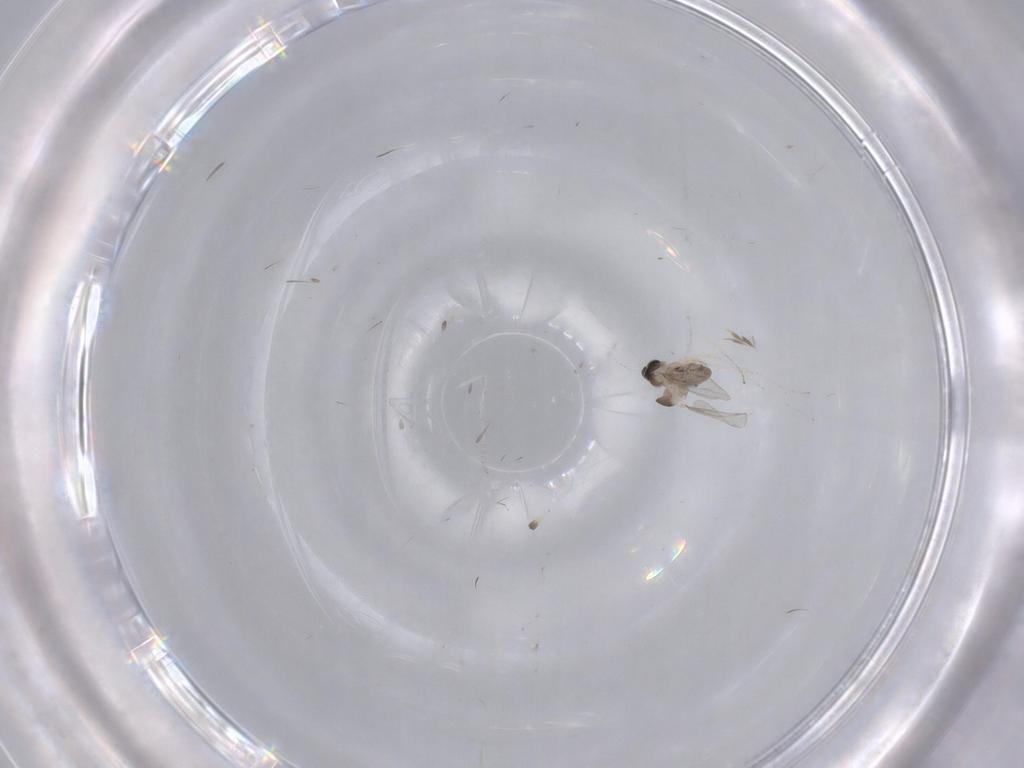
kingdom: Animalia
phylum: Arthropoda
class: Insecta
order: Diptera
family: Cecidomyiidae
